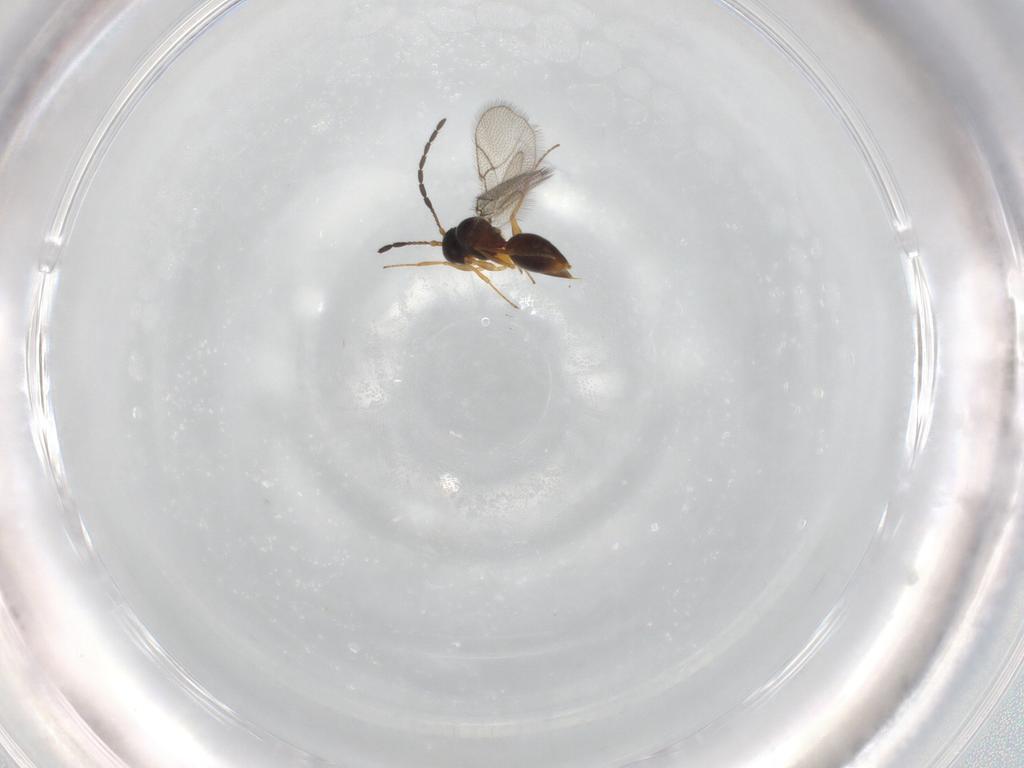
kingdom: Animalia
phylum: Arthropoda
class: Insecta
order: Hymenoptera
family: Figitidae
